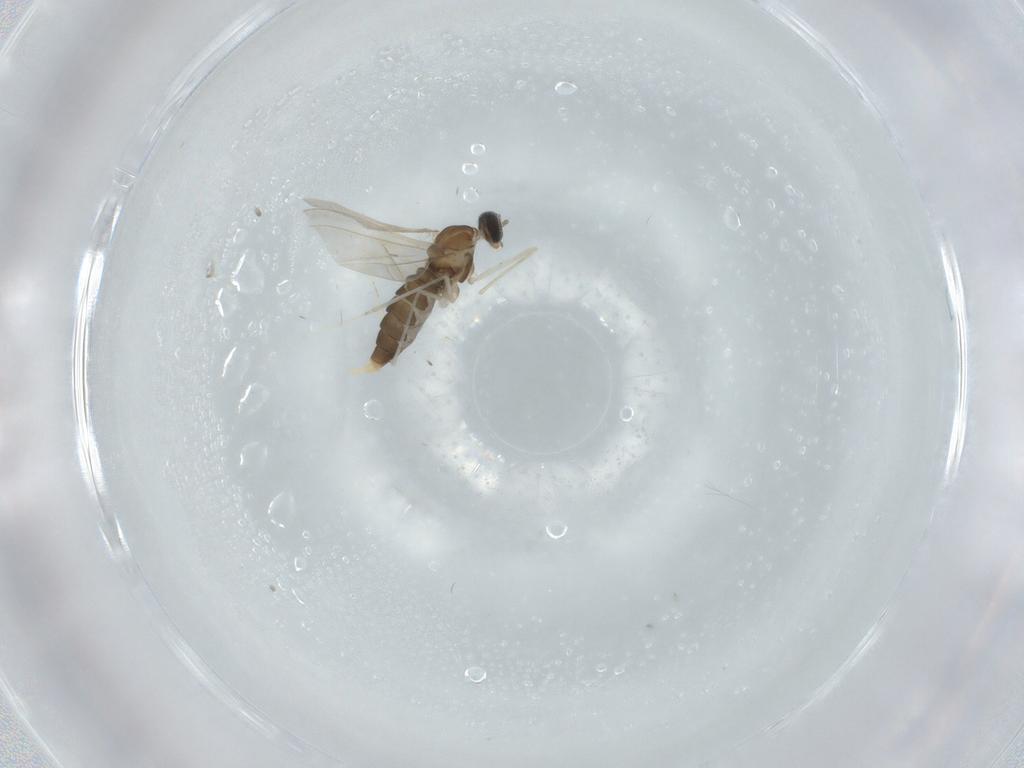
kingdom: Animalia
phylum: Arthropoda
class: Insecta
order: Diptera
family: Cecidomyiidae
